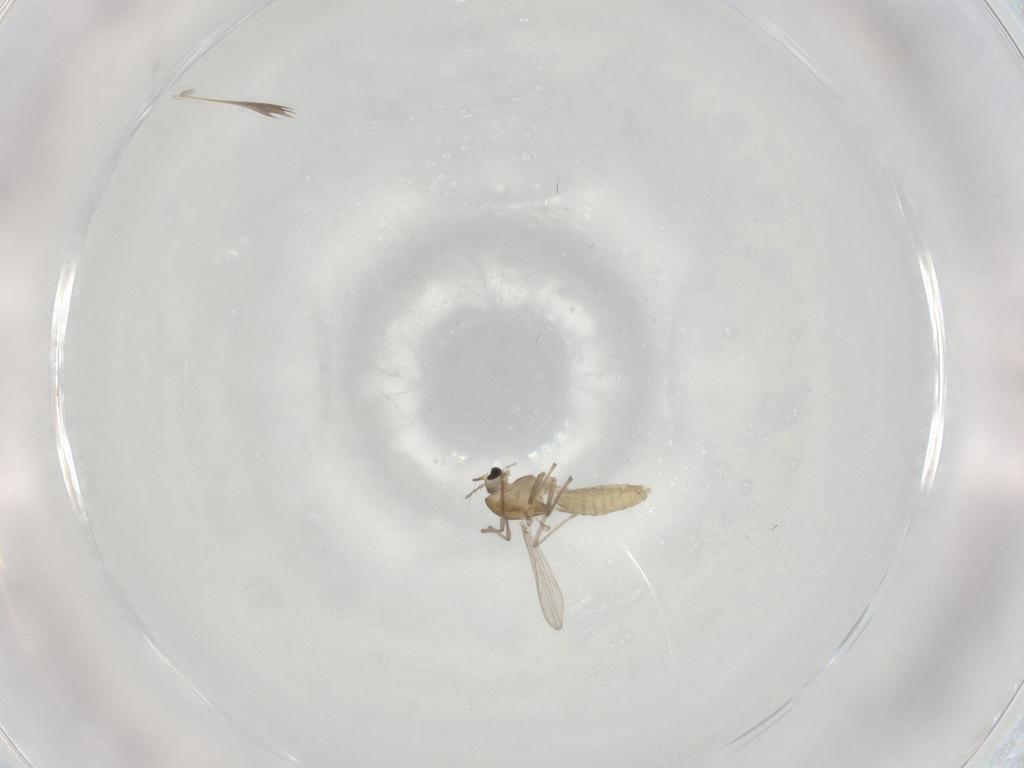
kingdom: Animalia
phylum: Arthropoda
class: Insecta
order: Diptera
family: Chironomidae
